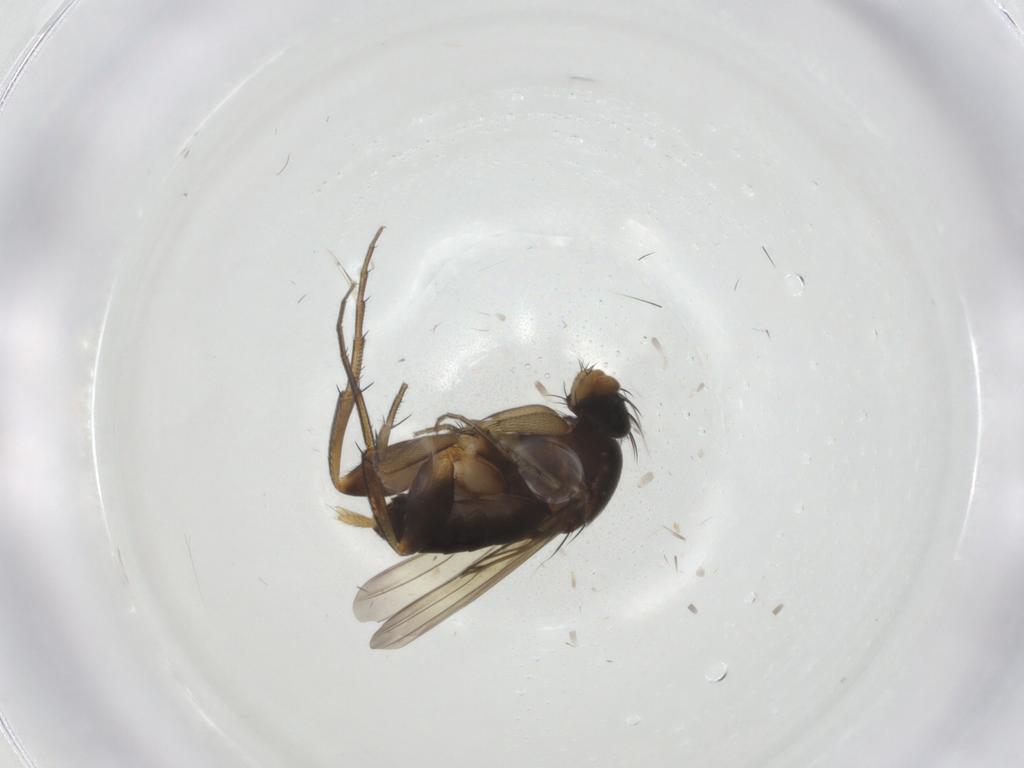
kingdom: Animalia
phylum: Arthropoda
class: Insecta
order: Diptera
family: Phoridae
